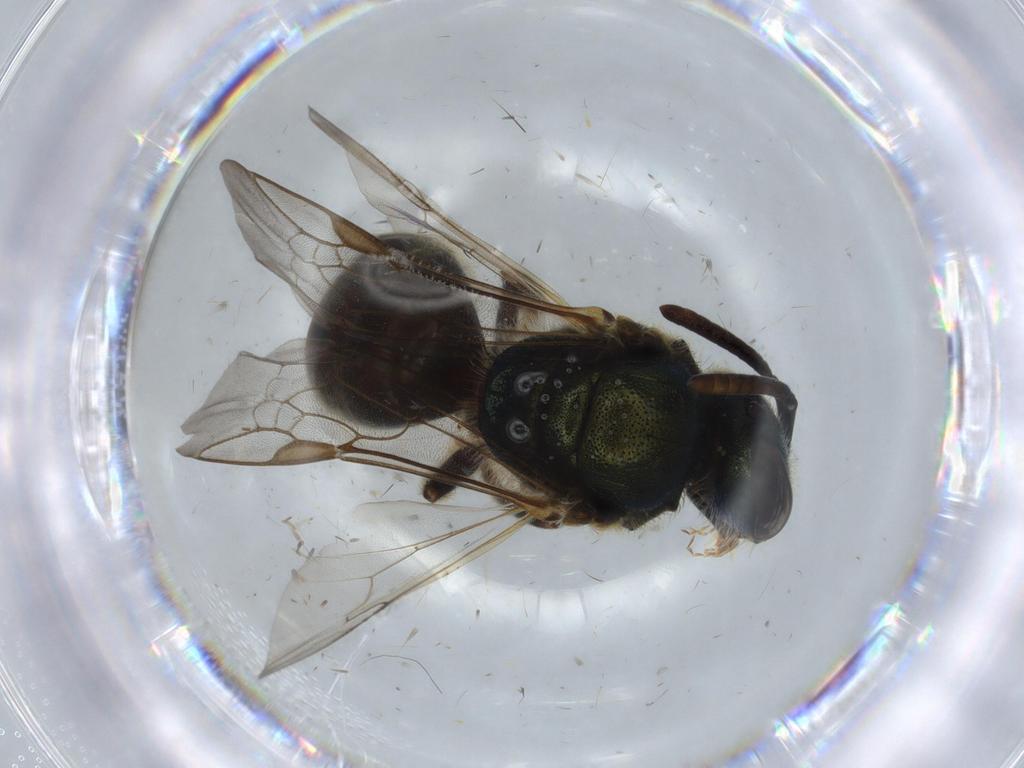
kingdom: Animalia
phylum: Arthropoda
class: Insecta
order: Hymenoptera
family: Halictidae
